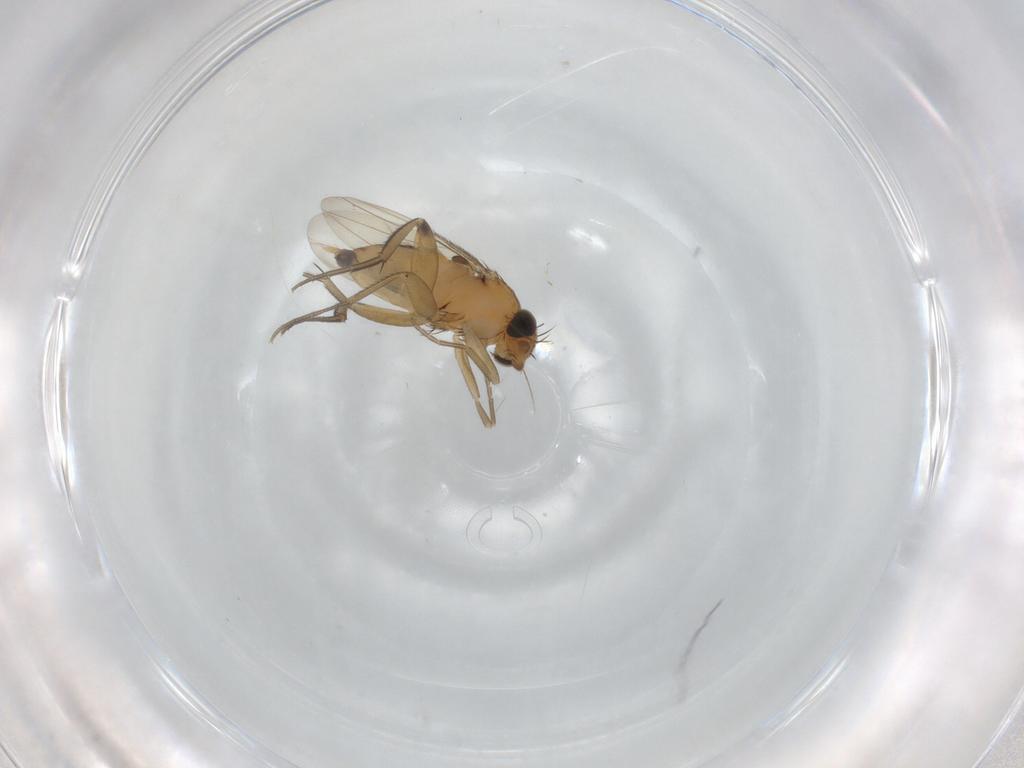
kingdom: Animalia
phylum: Arthropoda
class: Insecta
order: Diptera
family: Phoridae
